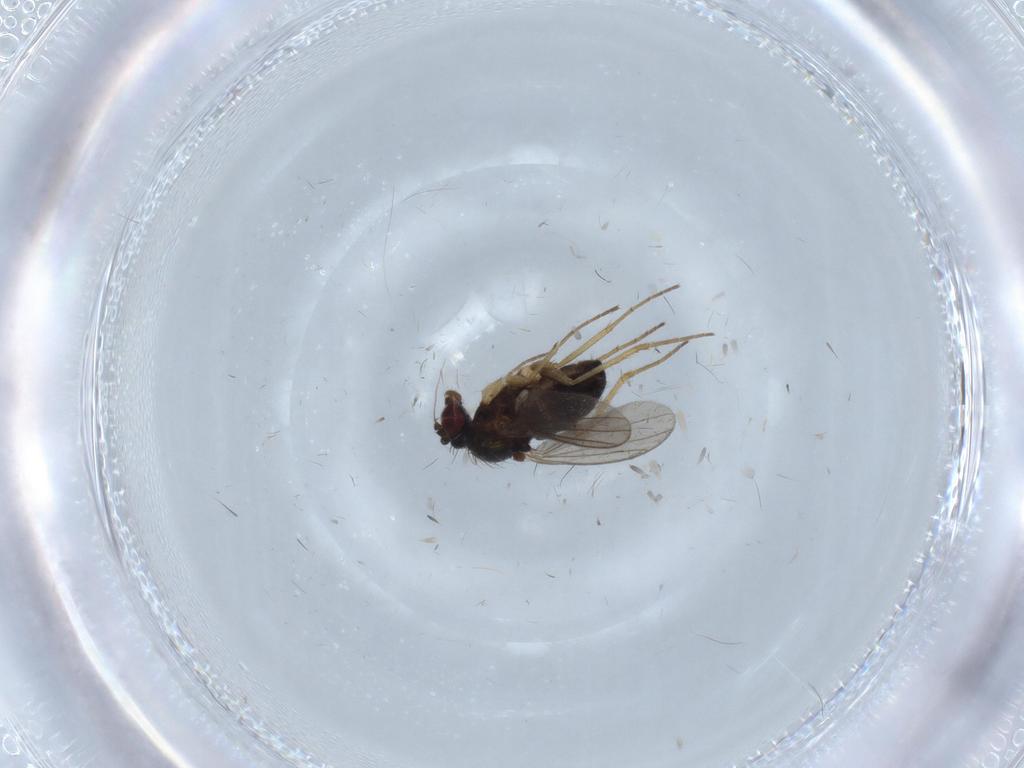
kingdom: Animalia
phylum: Arthropoda
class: Insecta
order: Diptera
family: Dolichopodidae
